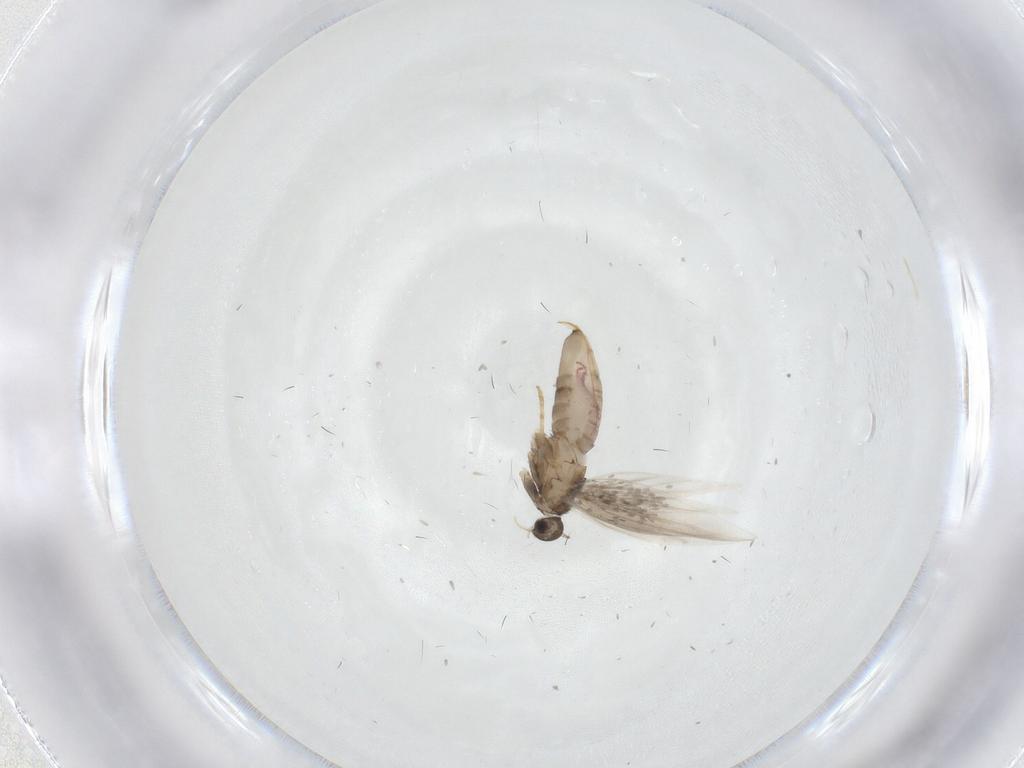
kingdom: Animalia
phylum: Arthropoda
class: Insecta
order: Lepidoptera
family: Heliozelidae
